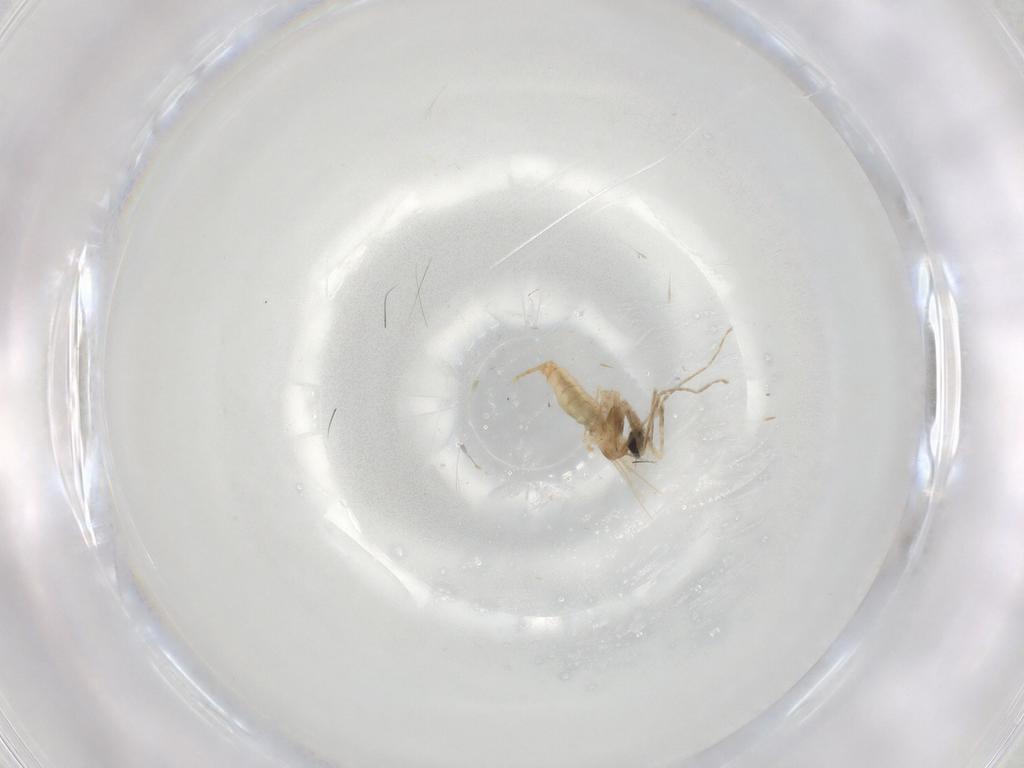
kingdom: Animalia
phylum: Arthropoda
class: Insecta
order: Diptera
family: Cecidomyiidae
